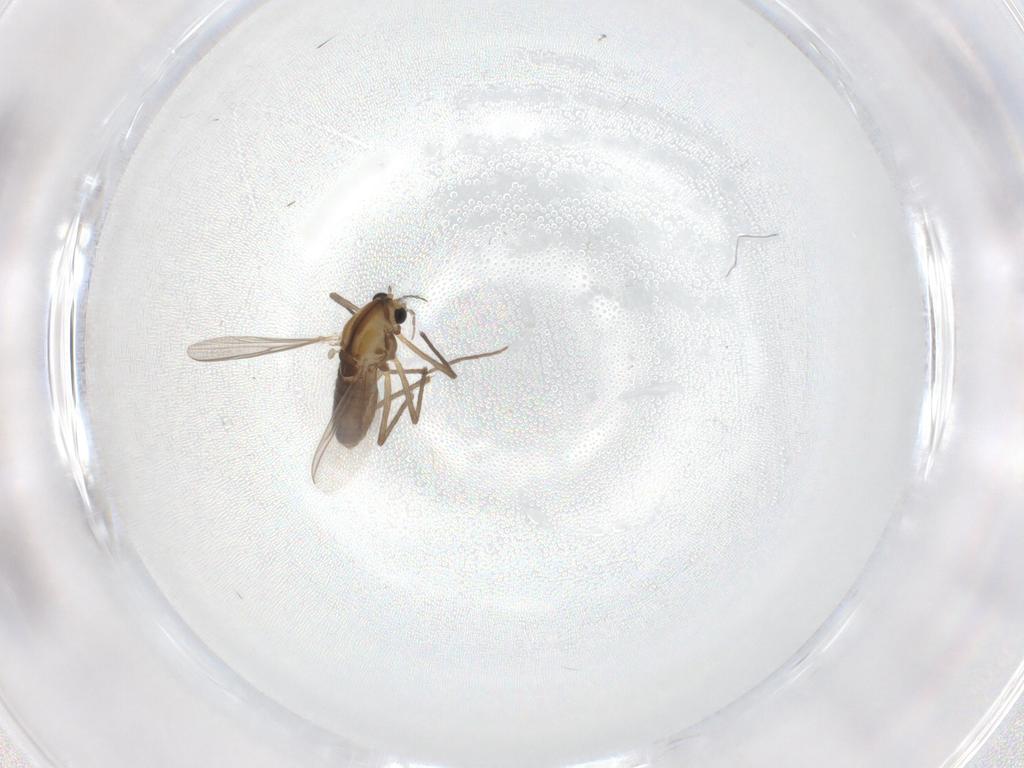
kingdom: Animalia
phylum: Arthropoda
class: Insecta
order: Diptera
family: Chironomidae
